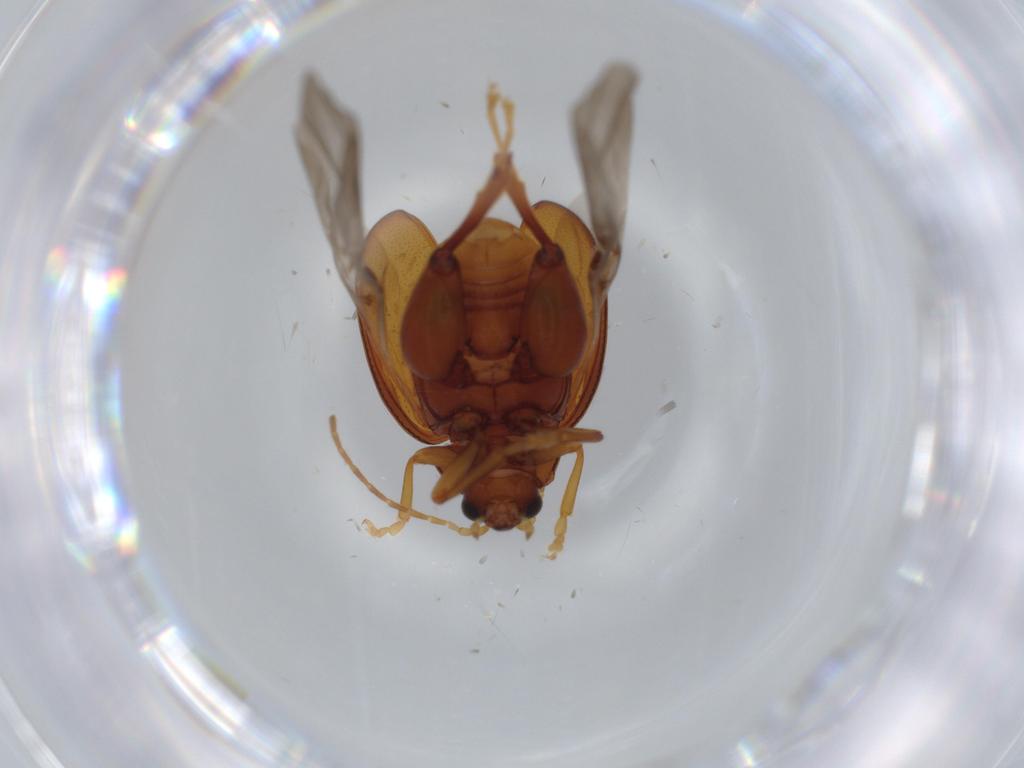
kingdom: Animalia
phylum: Arthropoda
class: Insecta
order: Coleoptera
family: Chrysomelidae
